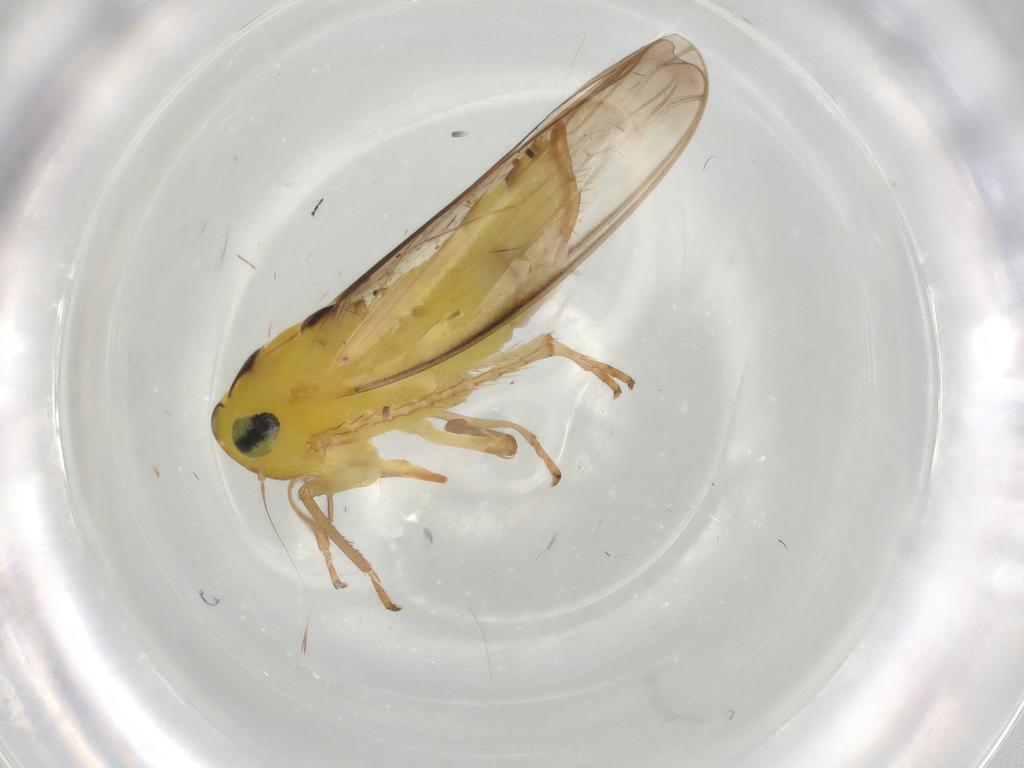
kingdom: Animalia
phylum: Arthropoda
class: Insecta
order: Hemiptera
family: Cicadellidae
